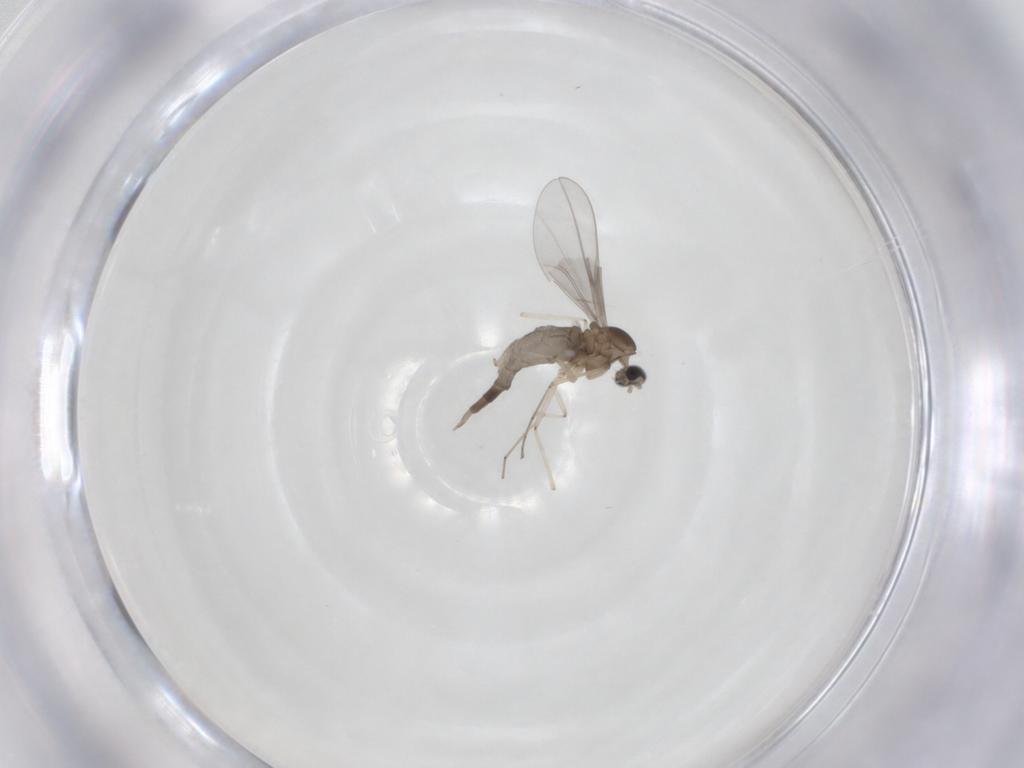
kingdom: Animalia
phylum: Arthropoda
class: Insecta
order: Diptera
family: Cecidomyiidae
